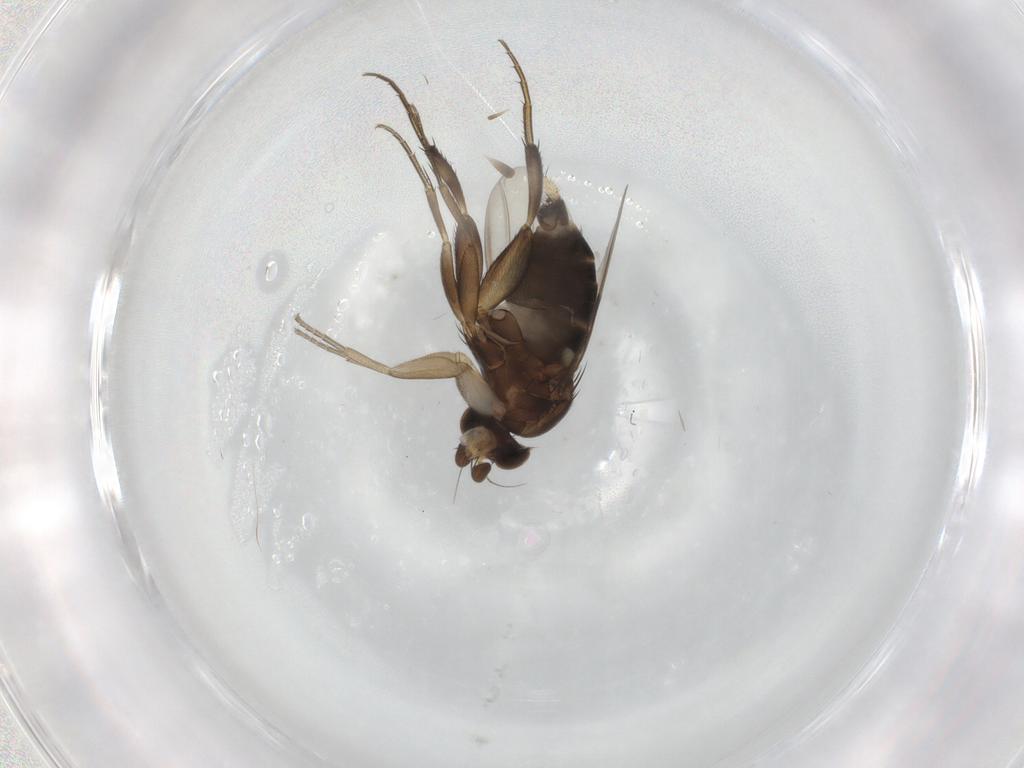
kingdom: Animalia
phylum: Arthropoda
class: Insecta
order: Diptera
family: Phoridae
